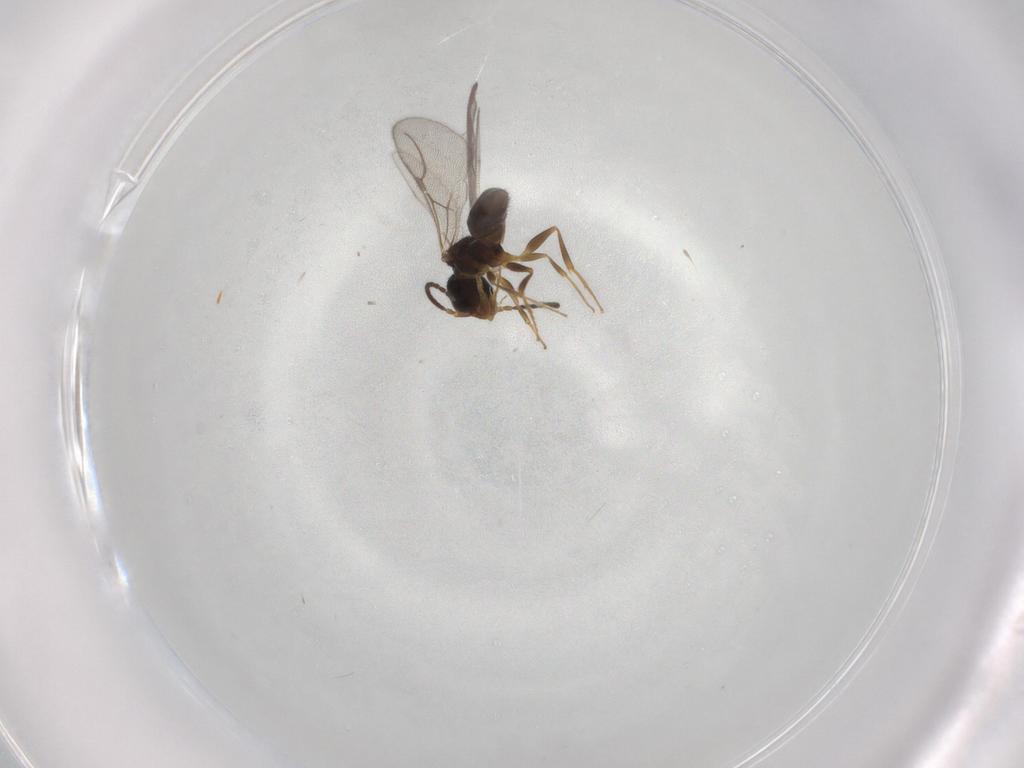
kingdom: Animalia
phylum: Arthropoda
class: Insecta
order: Hymenoptera
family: Bethylidae
